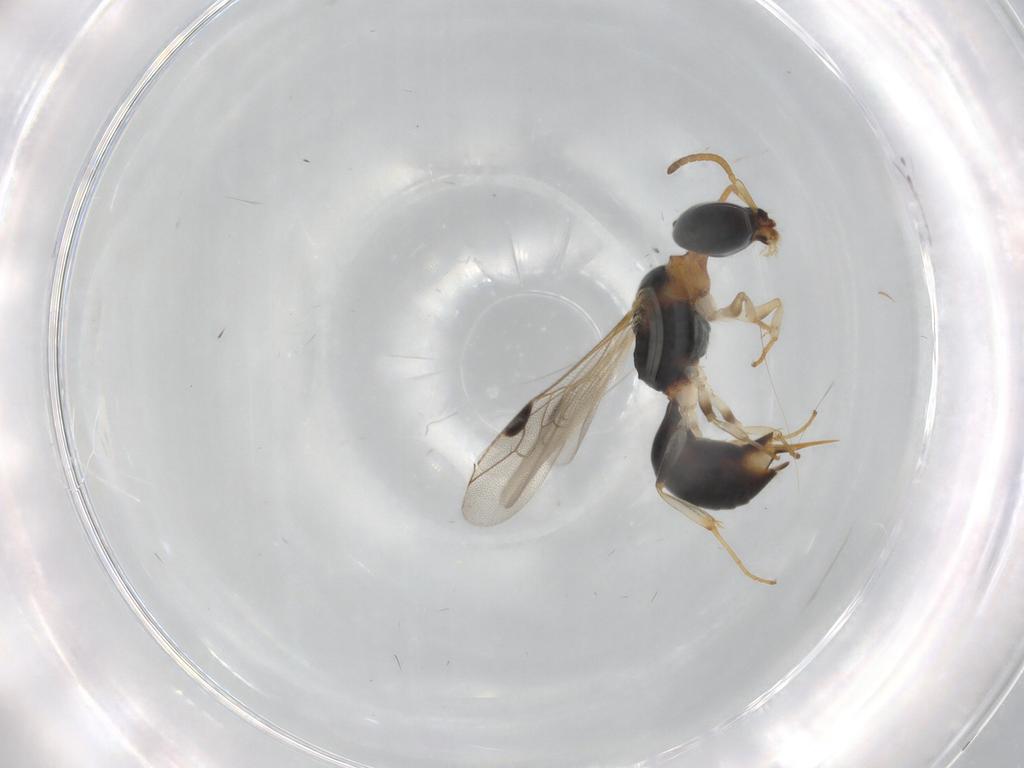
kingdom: Animalia
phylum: Arthropoda
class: Insecta
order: Hymenoptera
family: Pemphredonidae
